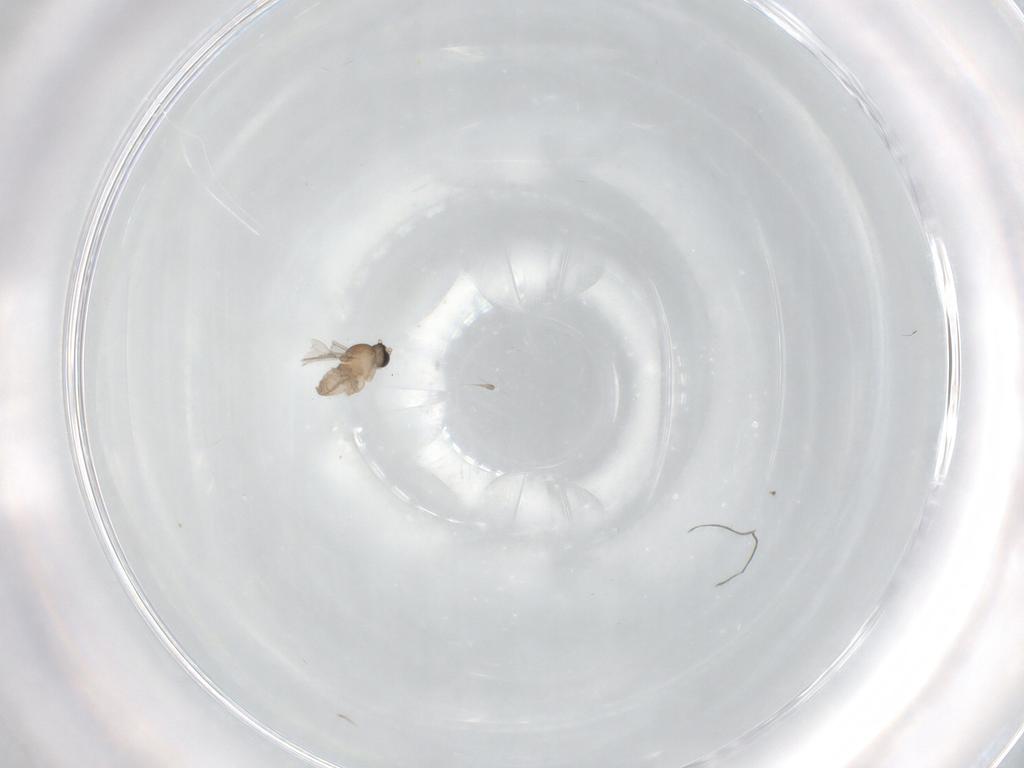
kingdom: Animalia
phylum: Arthropoda
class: Insecta
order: Diptera
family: Cecidomyiidae
